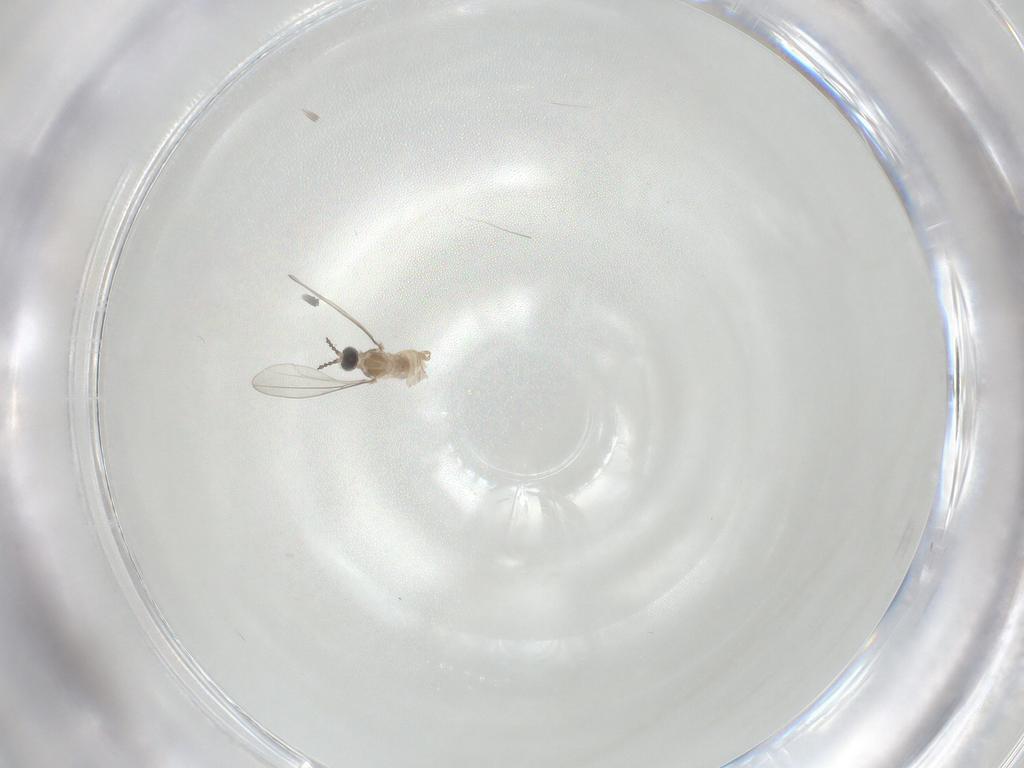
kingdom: Animalia
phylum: Arthropoda
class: Insecta
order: Diptera
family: Cecidomyiidae
